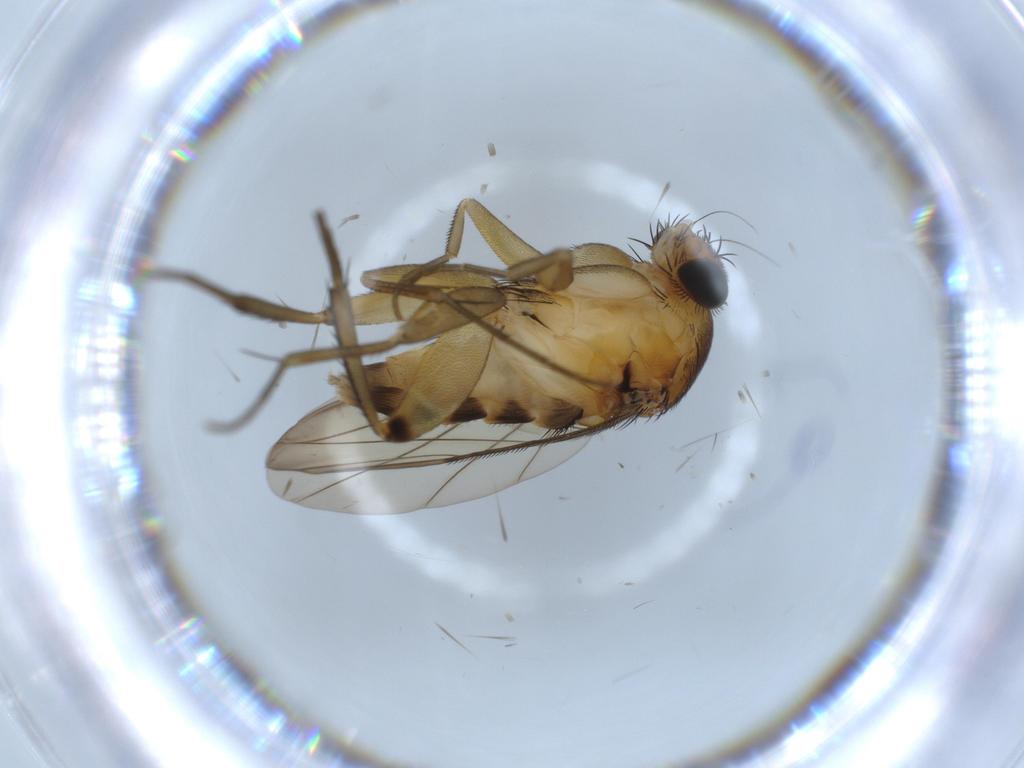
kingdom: Animalia
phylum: Arthropoda
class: Insecta
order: Diptera
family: Phoridae
